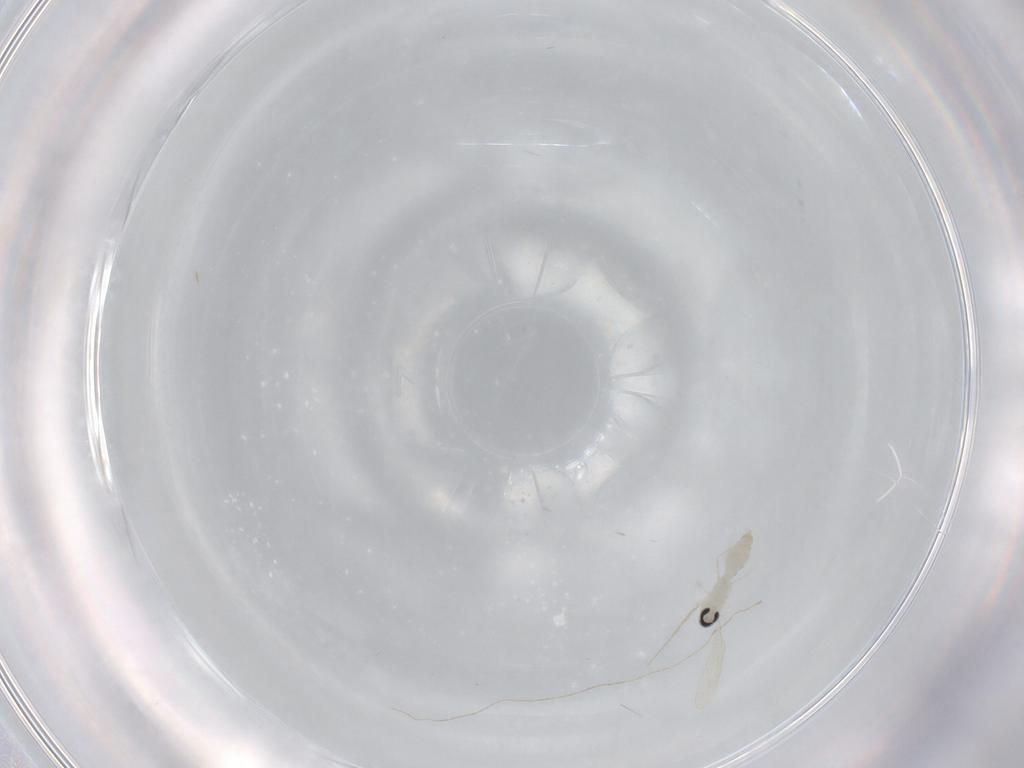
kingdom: Animalia
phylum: Arthropoda
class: Insecta
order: Diptera
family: Cecidomyiidae
